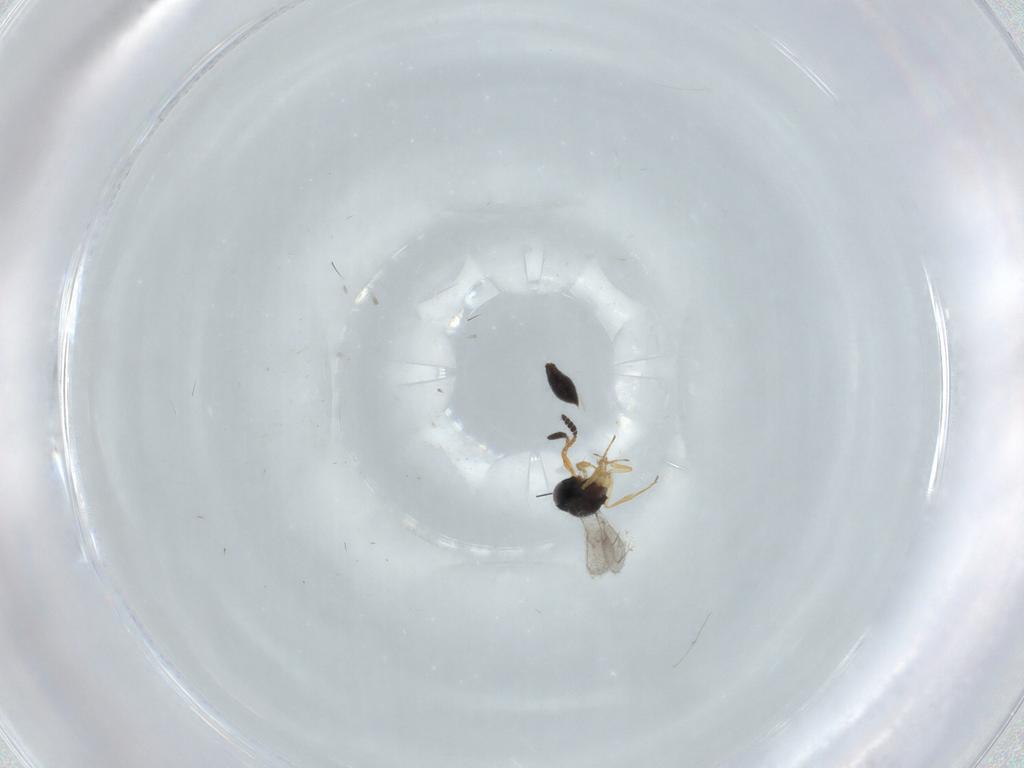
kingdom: Animalia
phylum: Arthropoda
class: Insecta
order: Hymenoptera
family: Scelionidae
